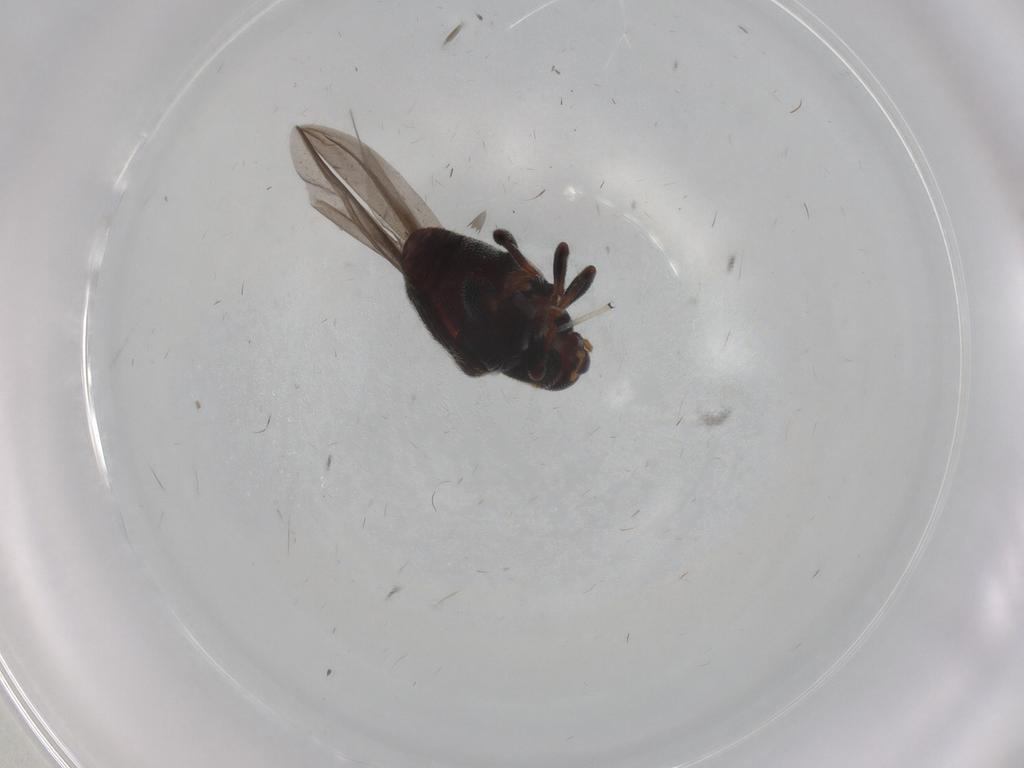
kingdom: Animalia
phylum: Arthropoda
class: Insecta
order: Coleoptera
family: Curculionidae
